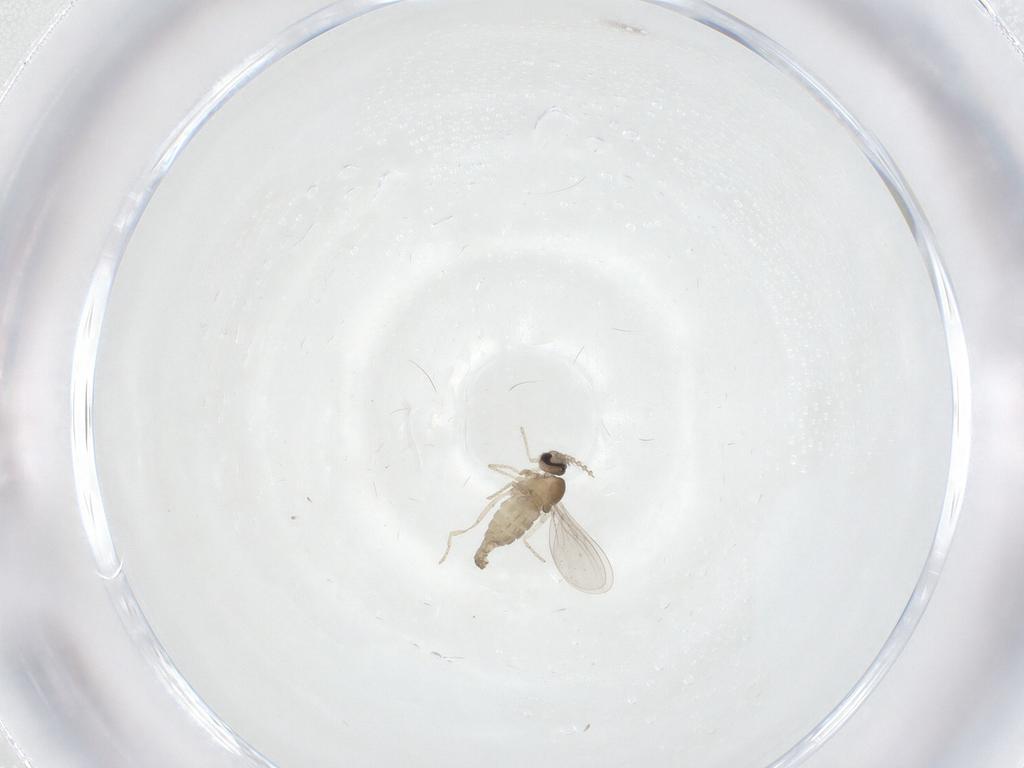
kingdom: Animalia
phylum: Arthropoda
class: Insecta
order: Diptera
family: Cecidomyiidae
